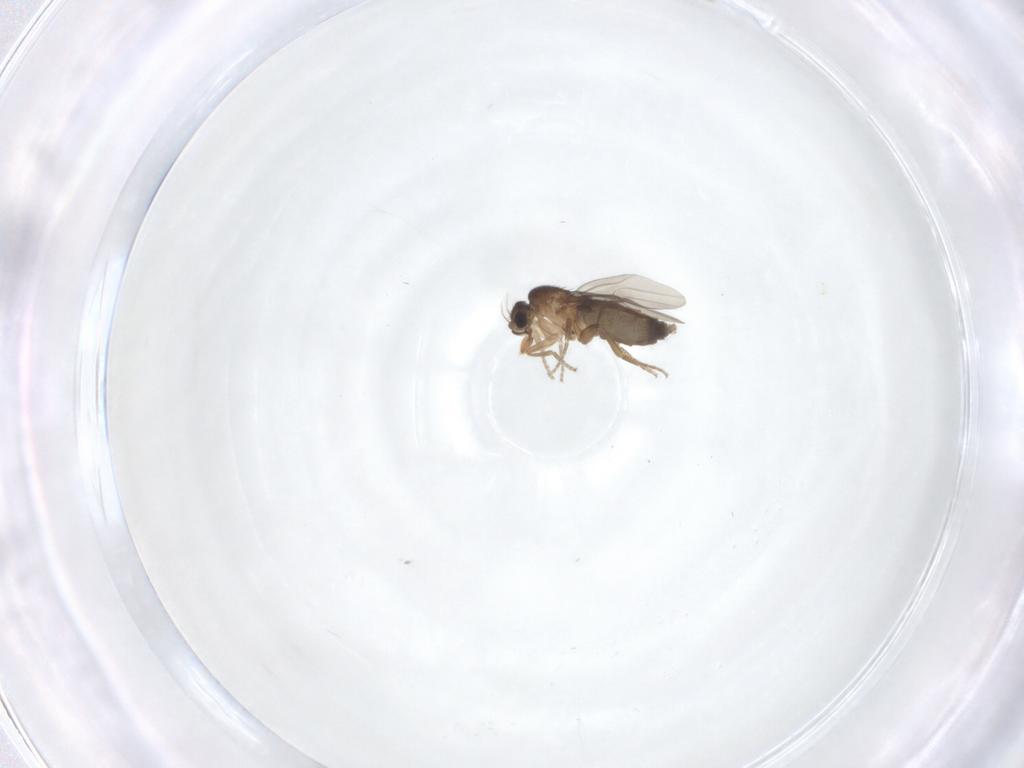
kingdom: Animalia
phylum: Arthropoda
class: Insecta
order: Diptera
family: Phoridae
